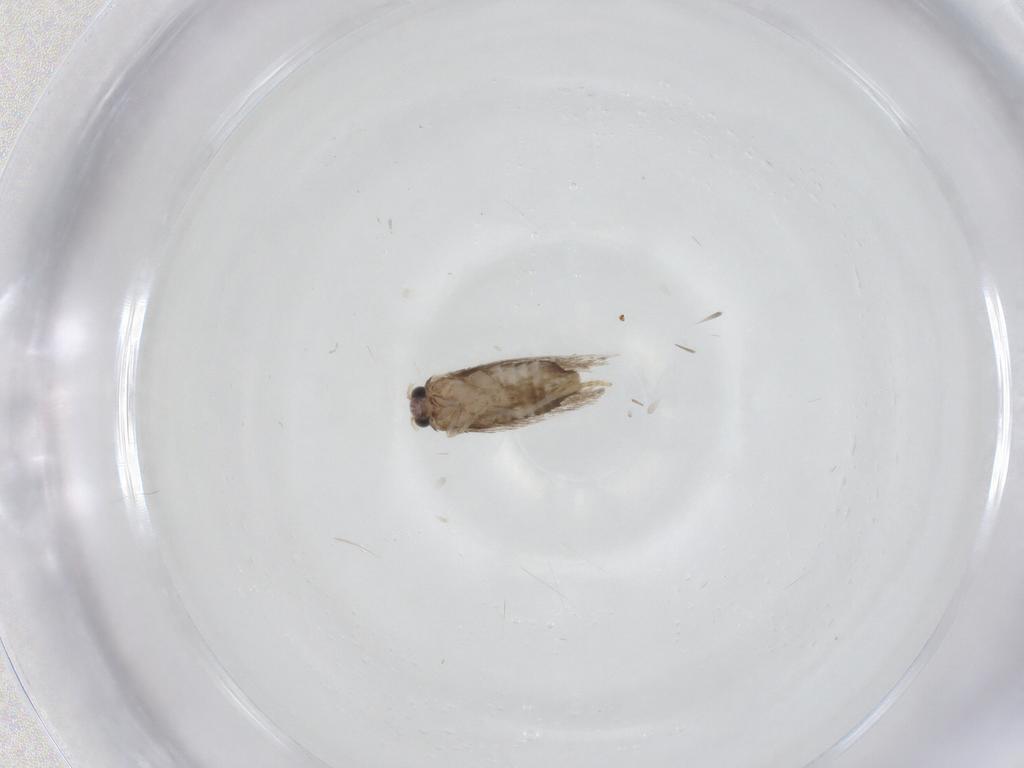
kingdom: Animalia
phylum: Arthropoda
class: Insecta
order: Lepidoptera
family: Nepticulidae
